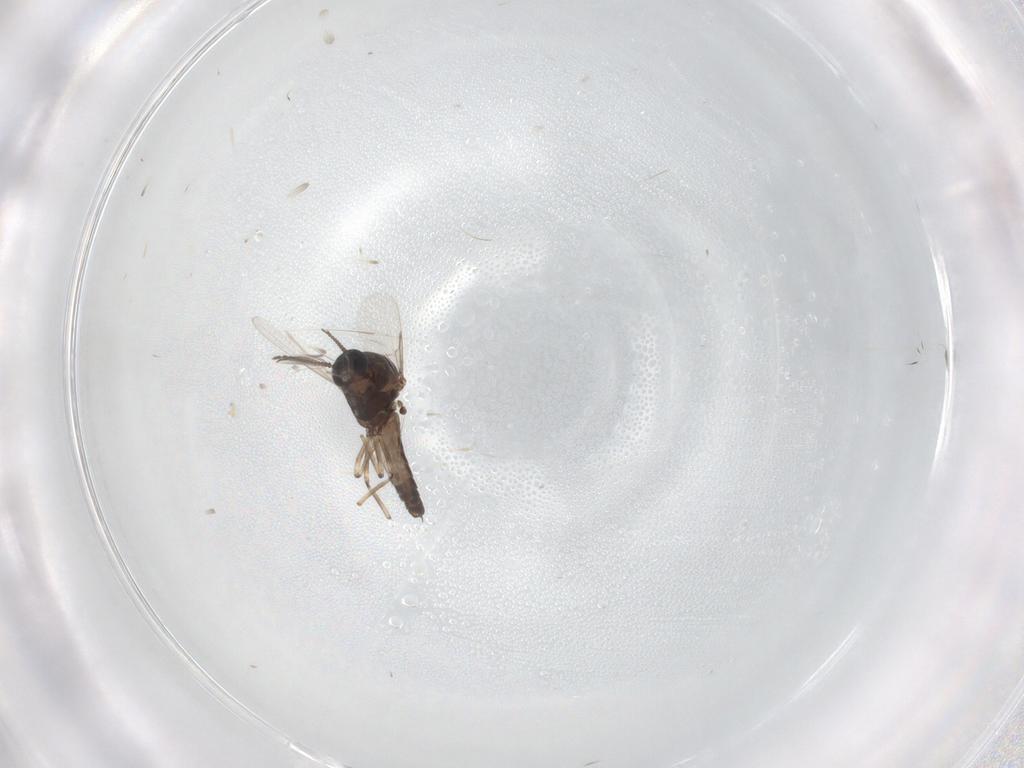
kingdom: Animalia
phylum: Arthropoda
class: Insecta
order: Diptera
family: Ceratopogonidae
